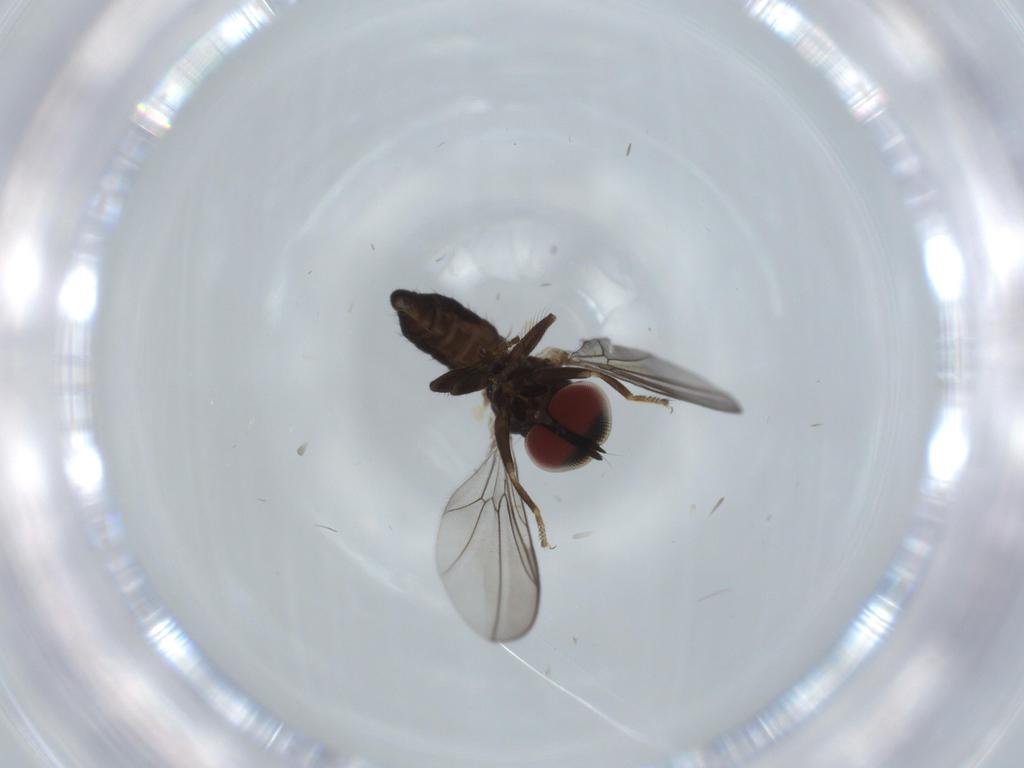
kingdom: Animalia
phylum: Arthropoda
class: Insecta
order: Diptera
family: Pipunculidae
